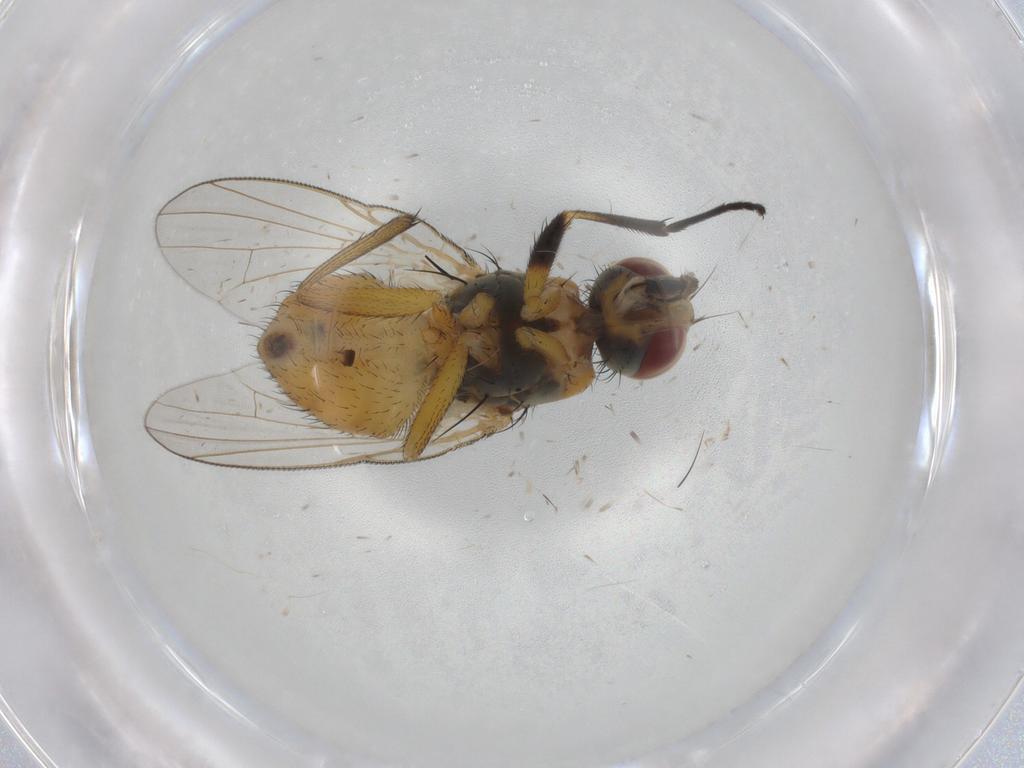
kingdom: Animalia
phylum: Arthropoda
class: Insecta
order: Diptera
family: Muscidae
